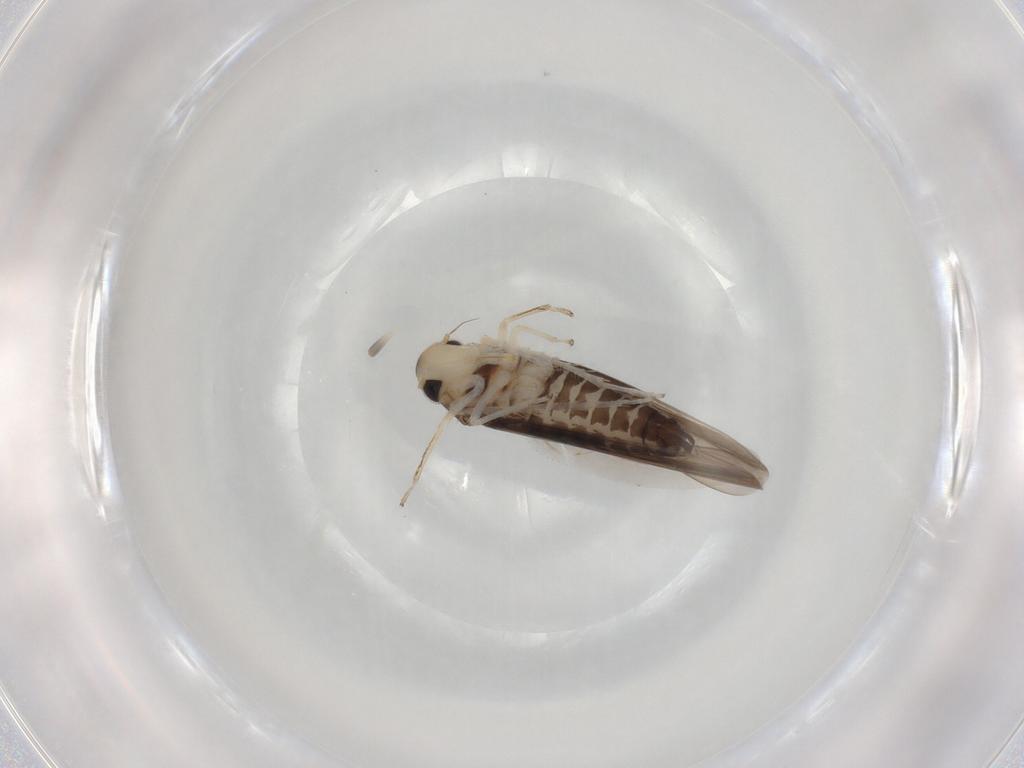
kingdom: Animalia
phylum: Arthropoda
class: Insecta
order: Hemiptera
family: Cicadellidae
